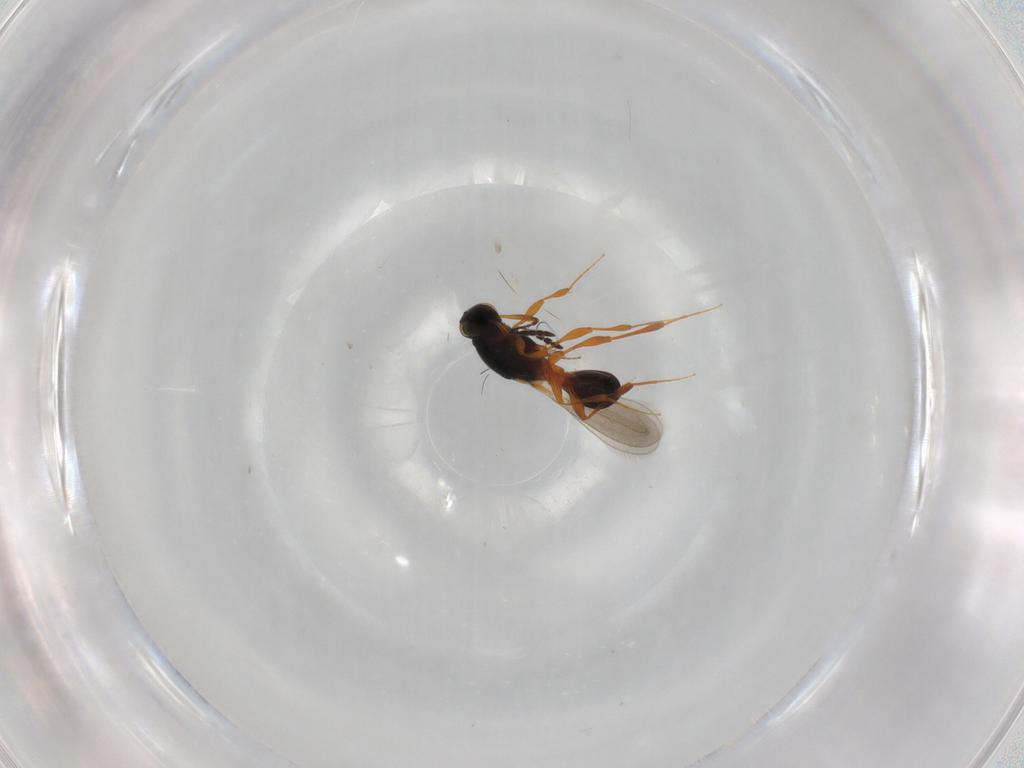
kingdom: Animalia
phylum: Arthropoda
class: Insecta
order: Hymenoptera
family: Platygastridae
